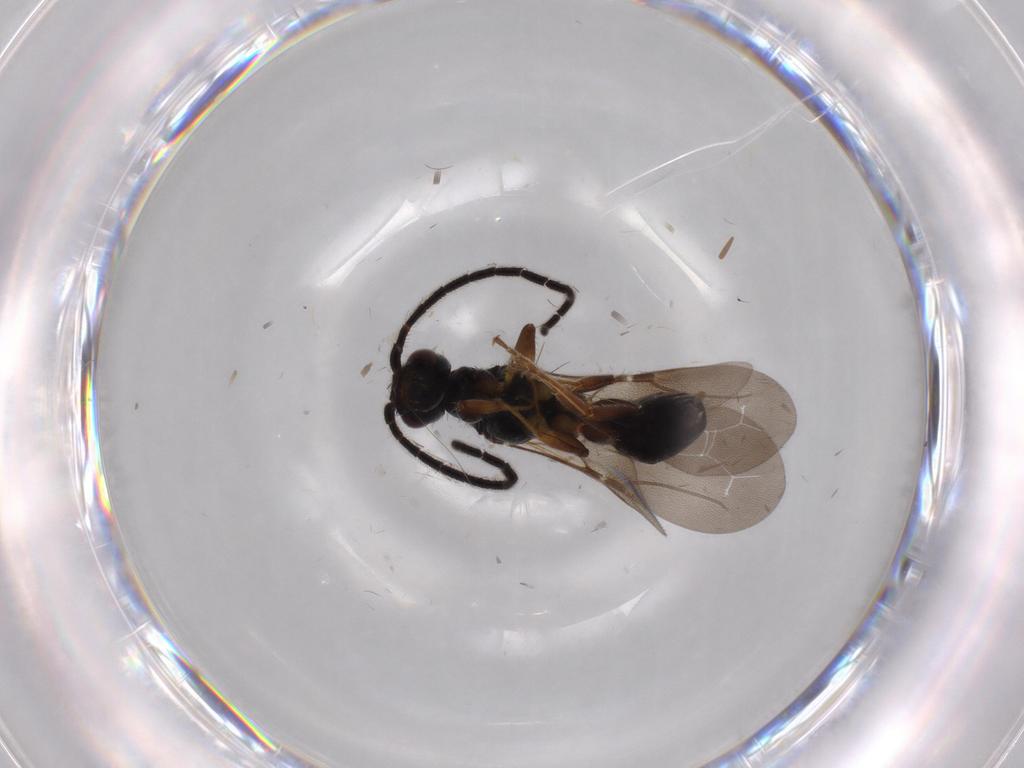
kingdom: Animalia
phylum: Arthropoda
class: Insecta
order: Hymenoptera
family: Bethylidae
